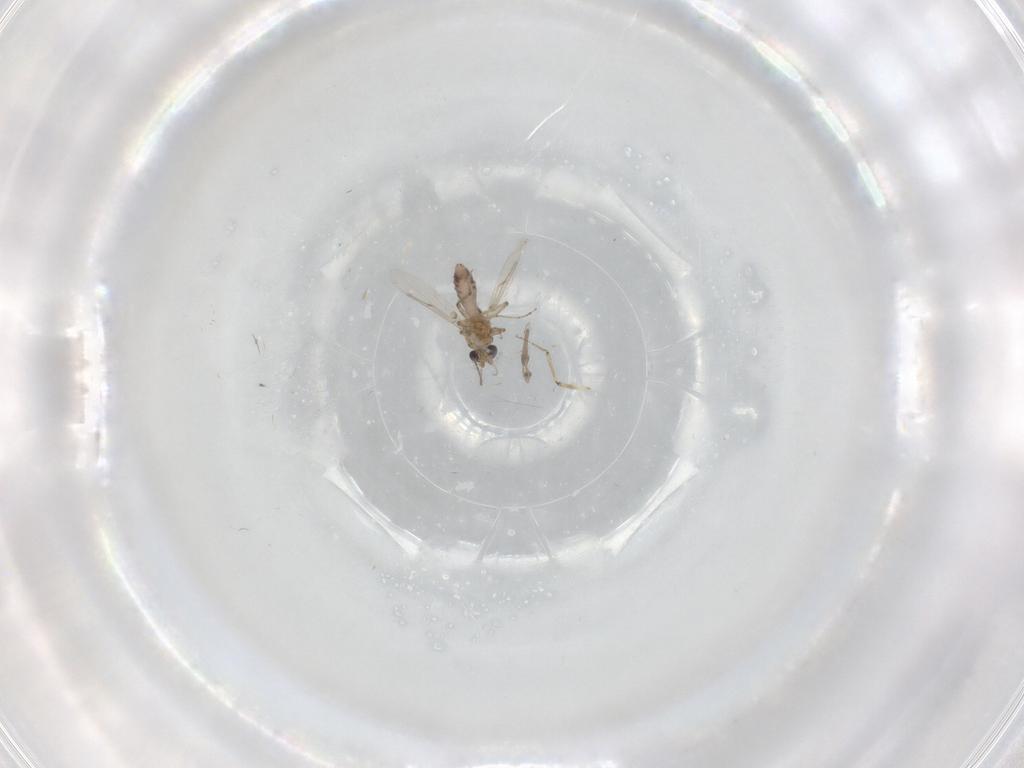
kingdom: Animalia
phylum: Arthropoda
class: Insecta
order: Diptera
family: Ceratopogonidae
